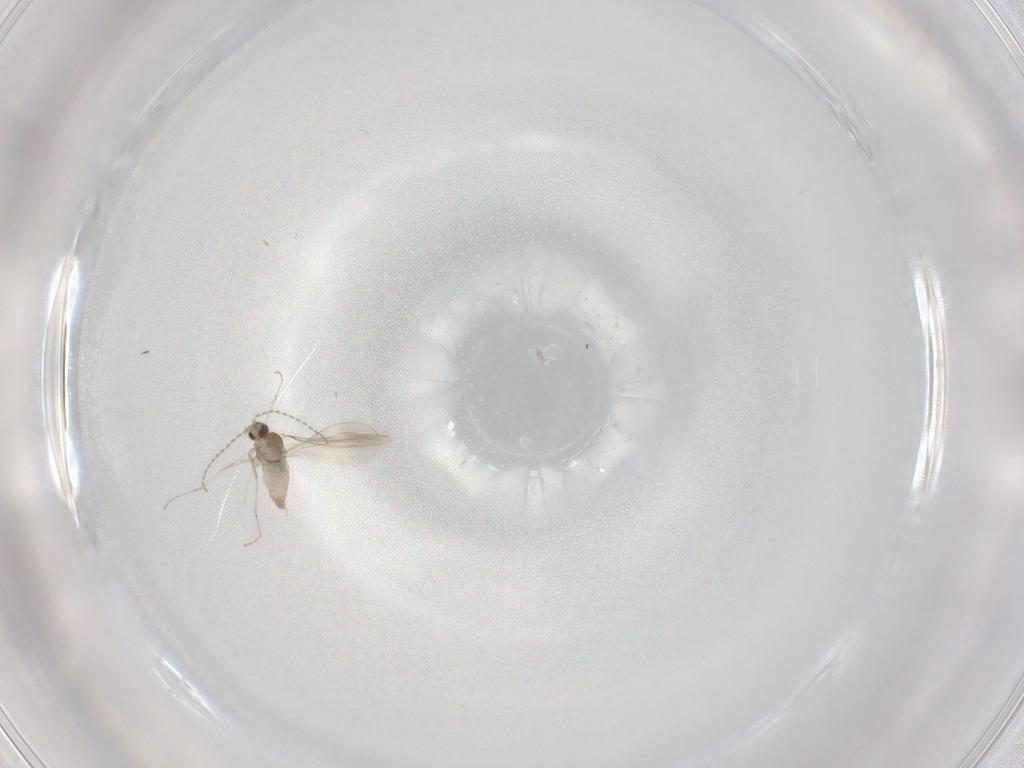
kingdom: Animalia
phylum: Arthropoda
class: Insecta
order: Diptera
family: Cecidomyiidae
